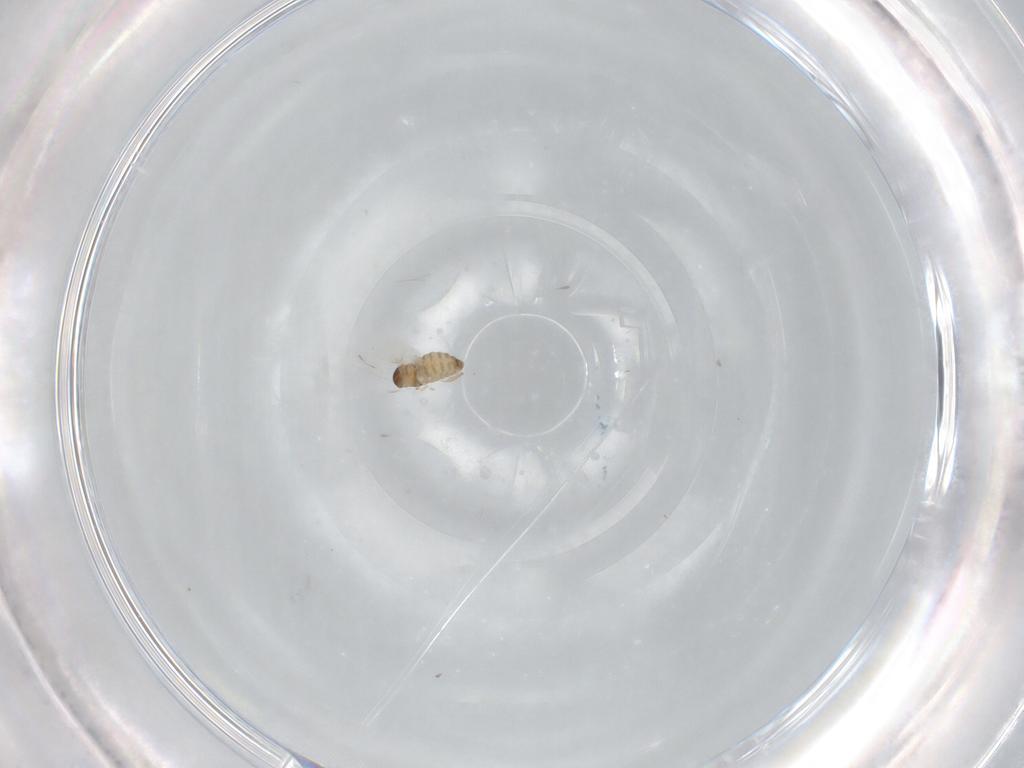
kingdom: Animalia
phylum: Arthropoda
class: Insecta
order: Diptera
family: Cecidomyiidae
